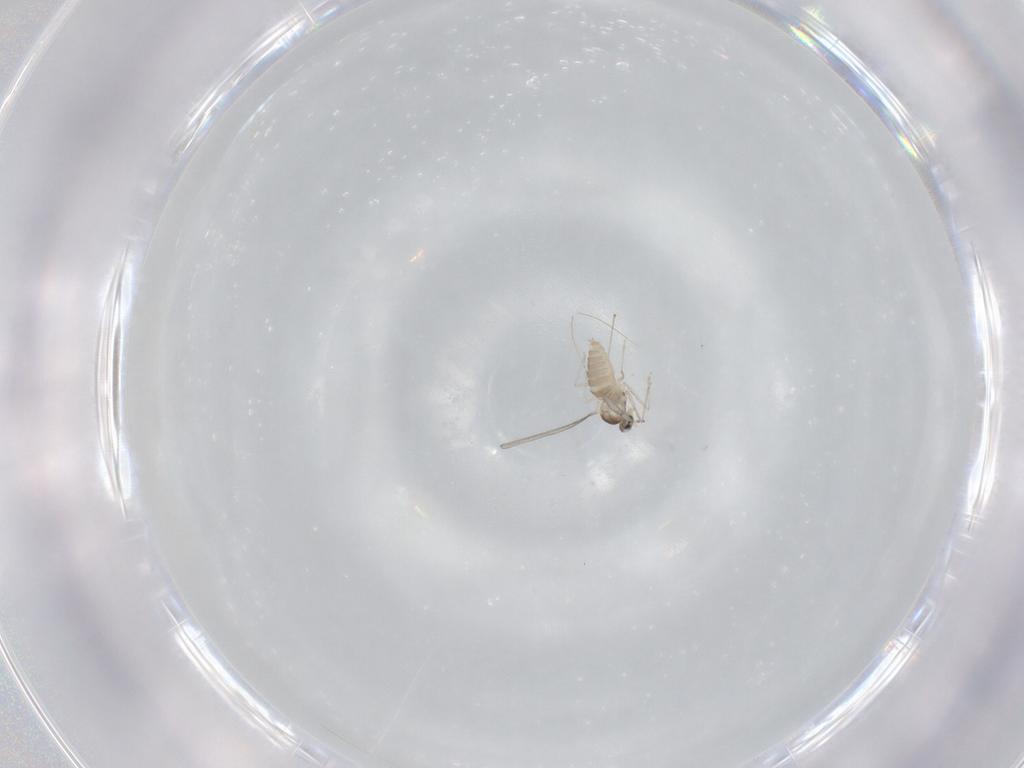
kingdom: Animalia
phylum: Arthropoda
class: Insecta
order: Diptera
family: Cecidomyiidae
